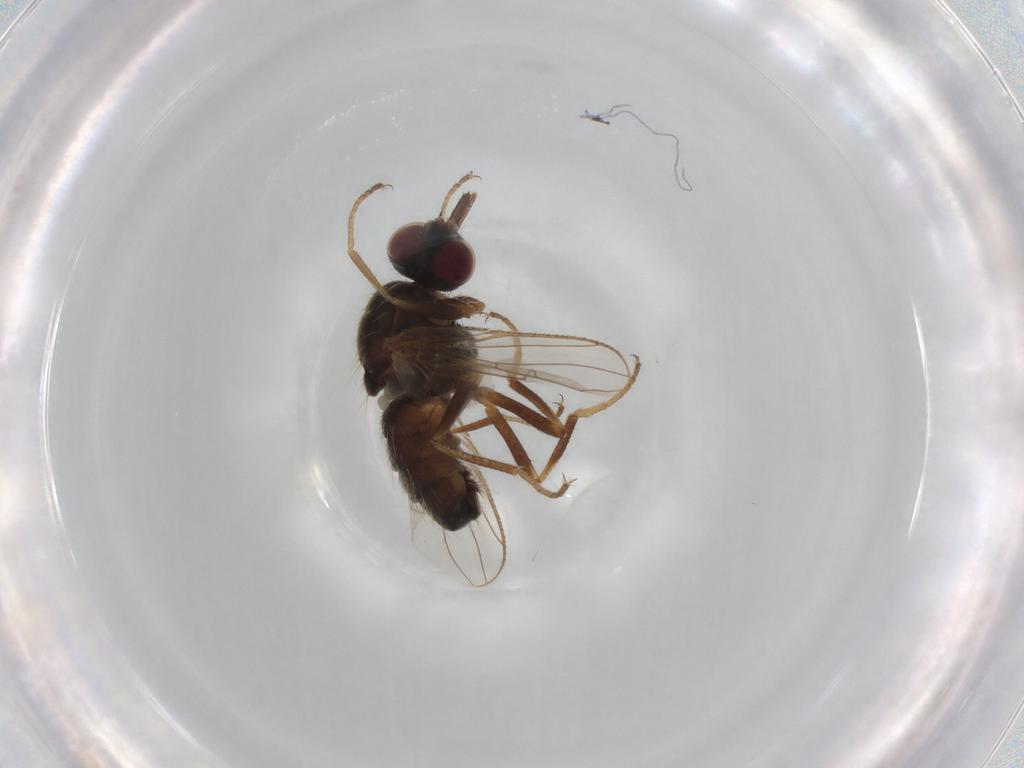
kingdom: Animalia
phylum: Arthropoda
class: Insecta
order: Diptera
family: Muscidae
